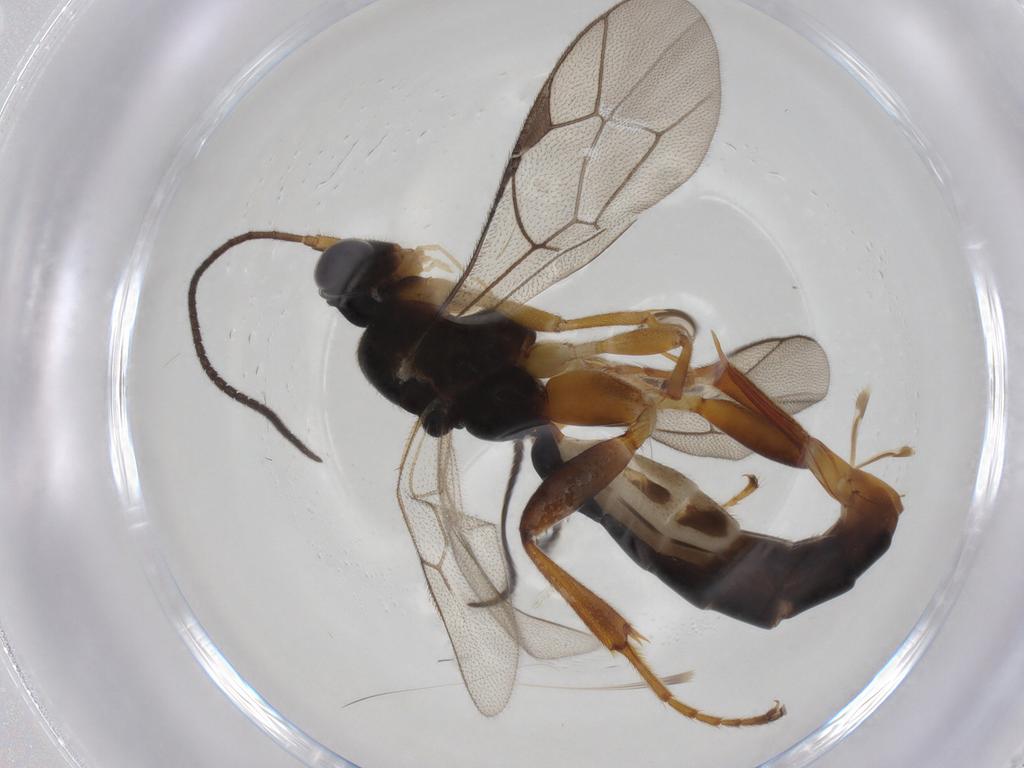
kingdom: Animalia
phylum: Arthropoda
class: Insecta
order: Hymenoptera
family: Ichneumonidae
